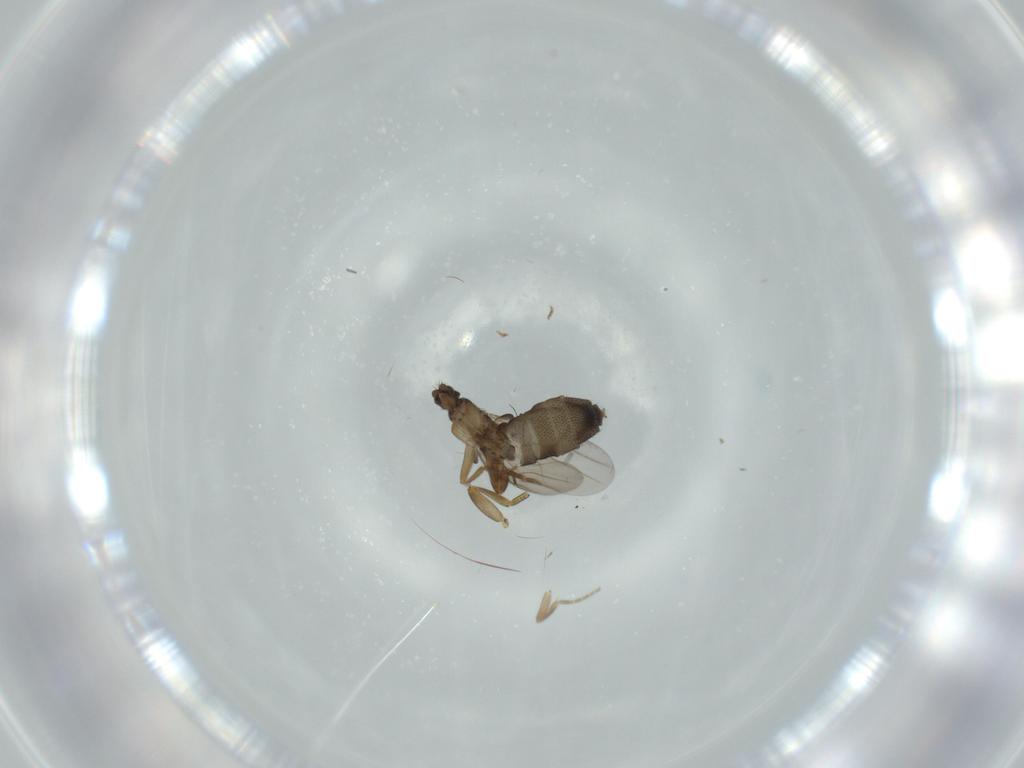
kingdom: Animalia
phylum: Arthropoda
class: Insecta
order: Diptera
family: Phoridae
